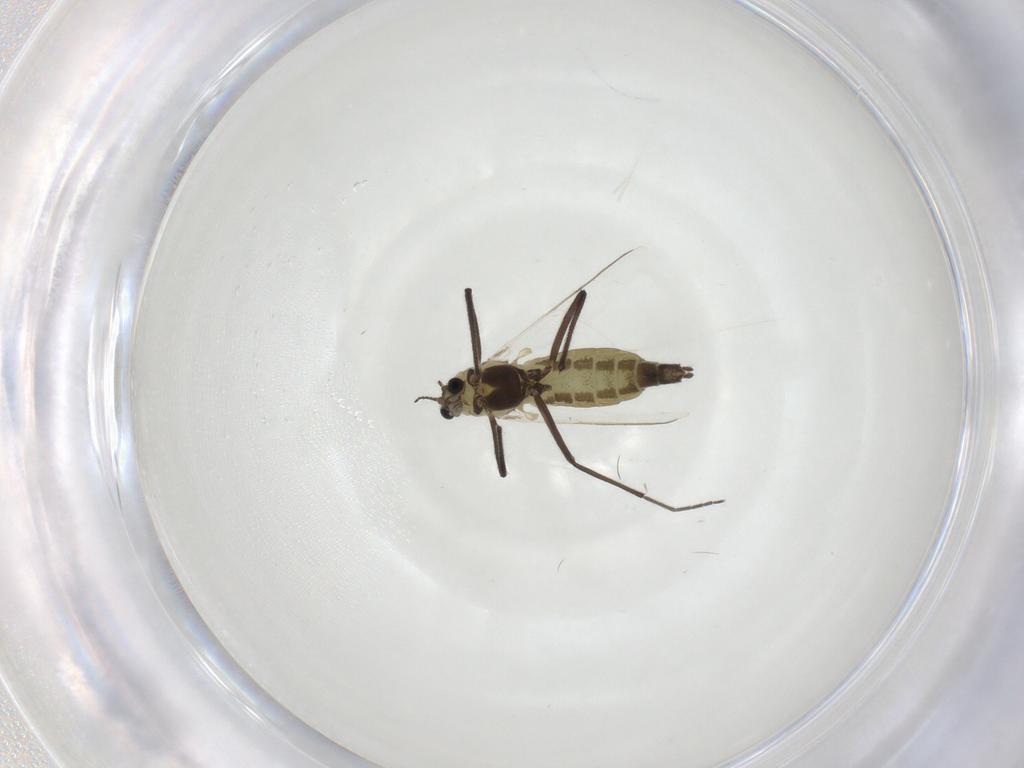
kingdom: Animalia
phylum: Arthropoda
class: Insecta
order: Diptera
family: Chironomidae
